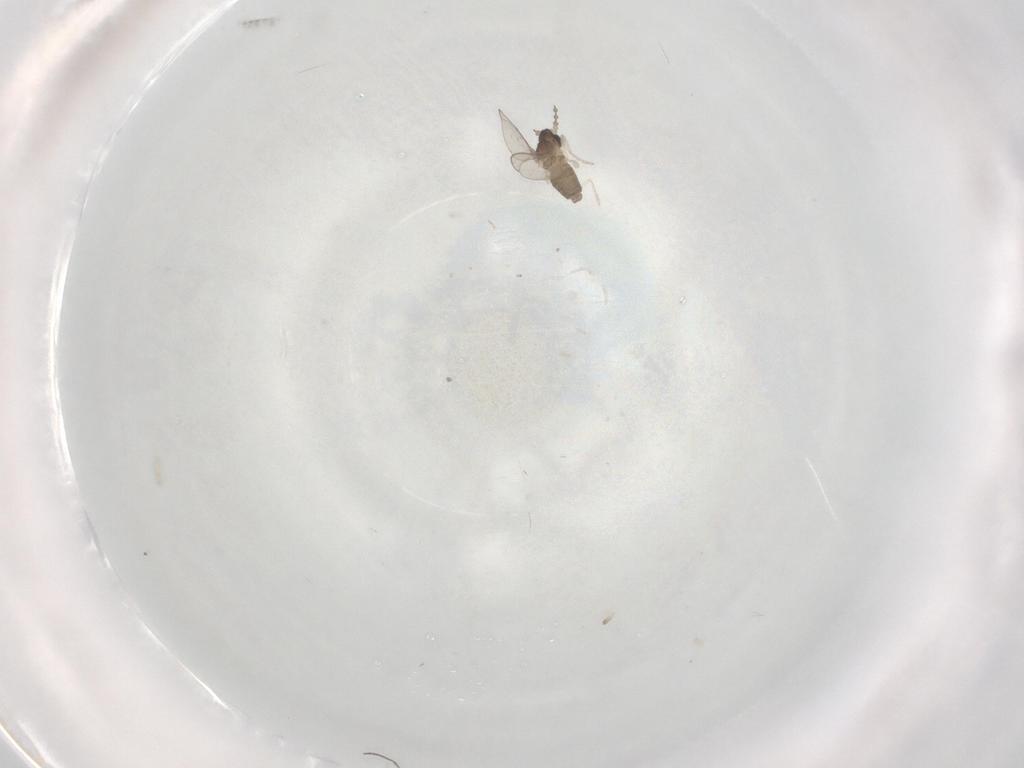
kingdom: Animalia
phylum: Arthropoda
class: Insecta
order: Diptera
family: Cecidomyiidae
